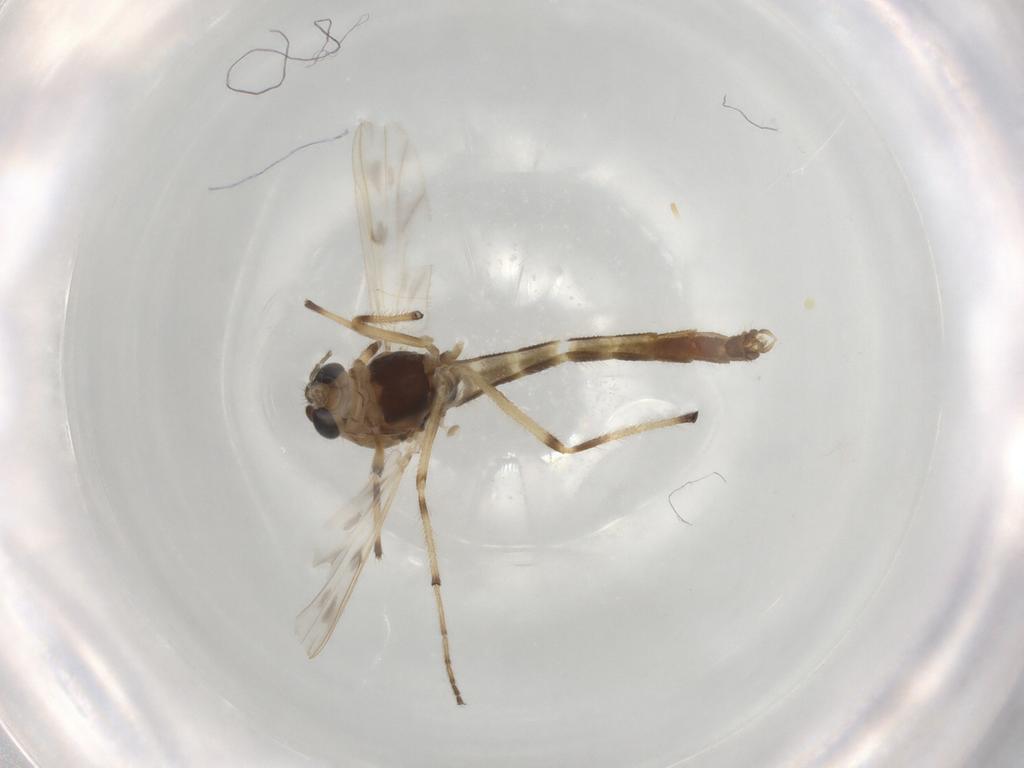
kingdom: Animalia
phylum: Arthropoda
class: Insecta
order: Diptera
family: Chironomidae
